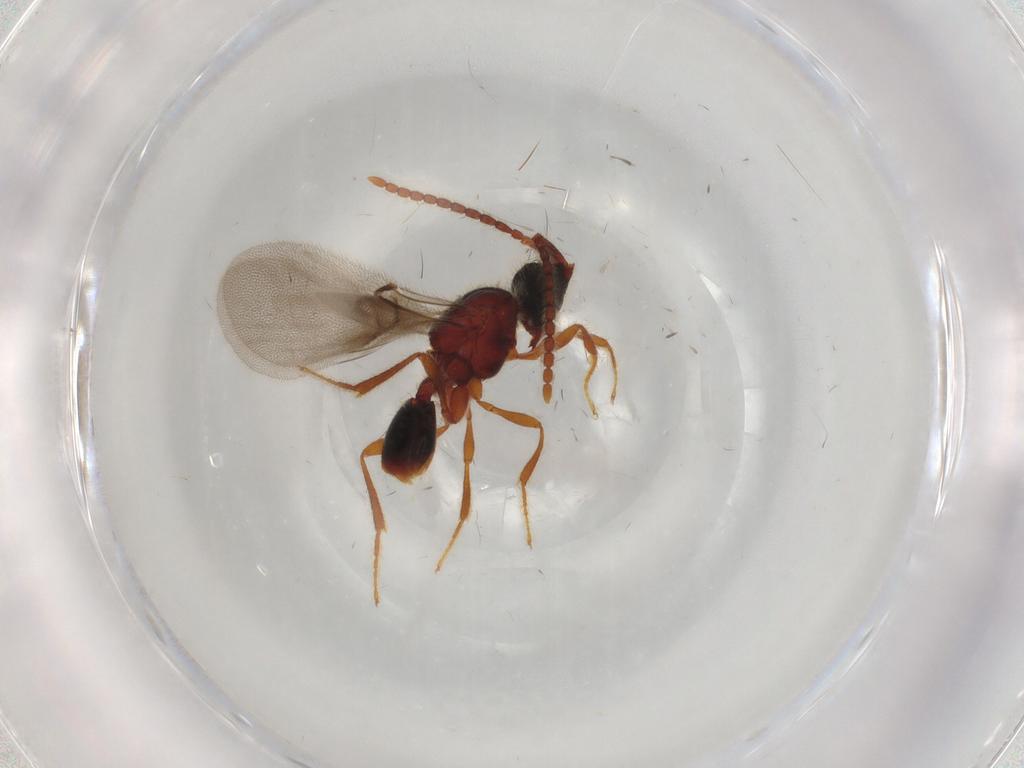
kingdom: Animalia
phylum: Arthropoda
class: Insecta
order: Hymenoptera
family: Diapriidae
